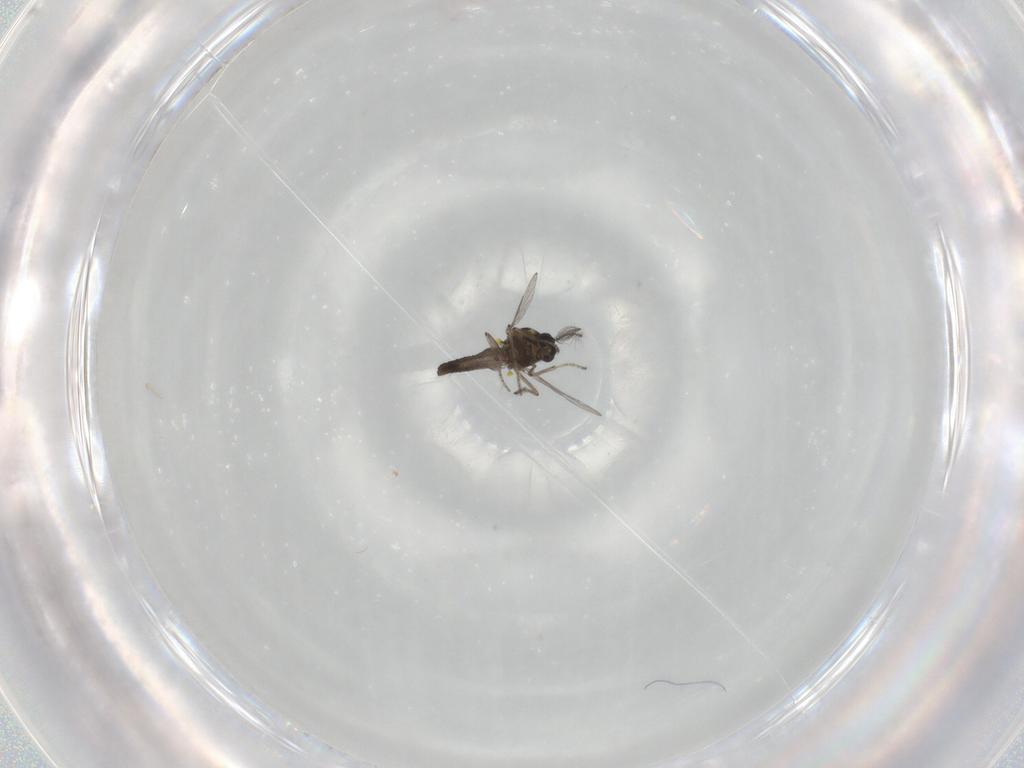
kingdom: Animalia
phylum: Arthropoda
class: Insecta
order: Diptera
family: Ceratopogonidae
